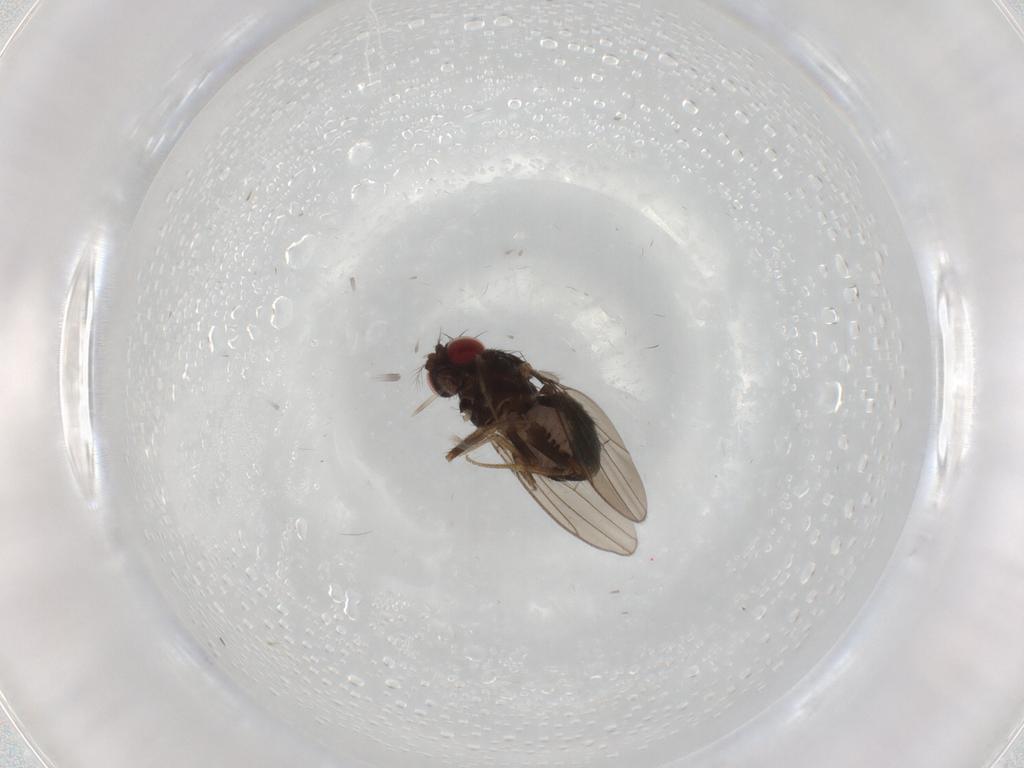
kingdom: Animalia
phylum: Arthropoda
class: Insecta
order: Diptera
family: Drosophilidae
